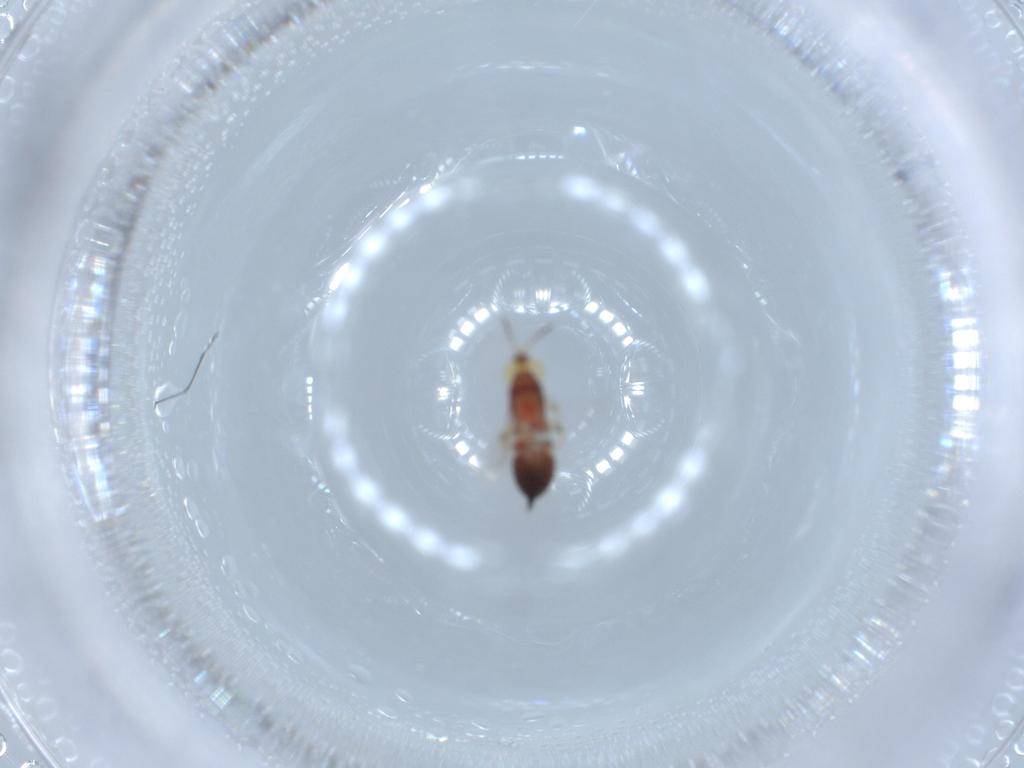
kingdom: Animalia
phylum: Arthropoda
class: Insecta
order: Thysanoptera
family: Phlaeothripidae
